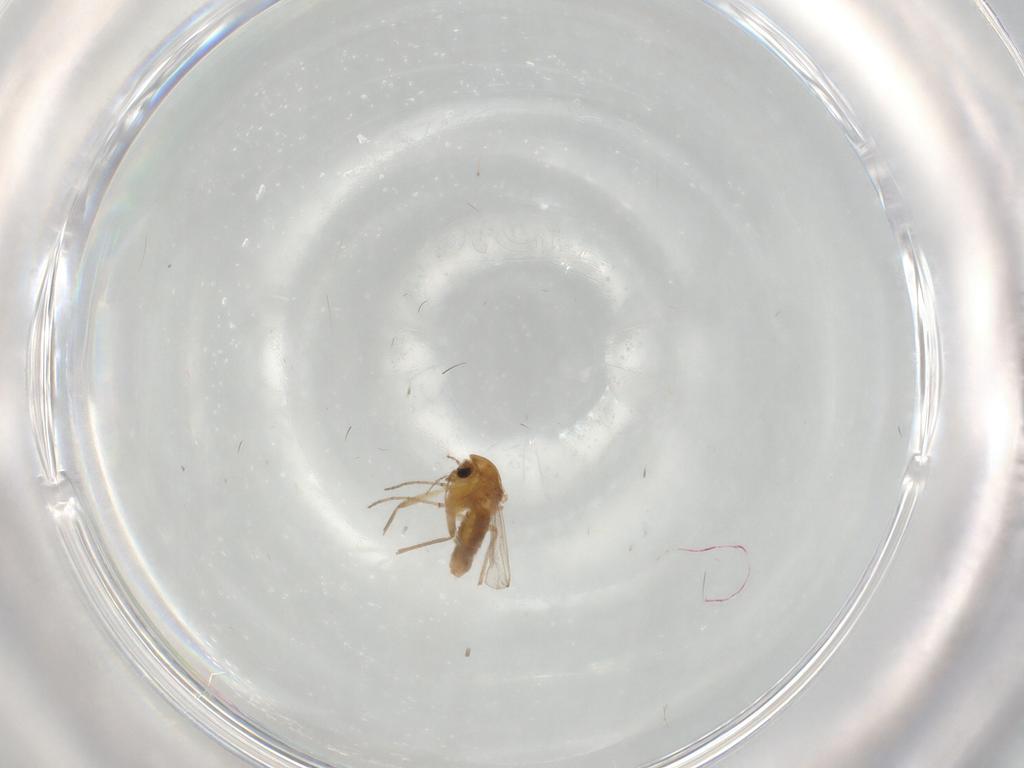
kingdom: Animalia
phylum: Arthropoda
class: Insecta
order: Diptera
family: Chironomidae
